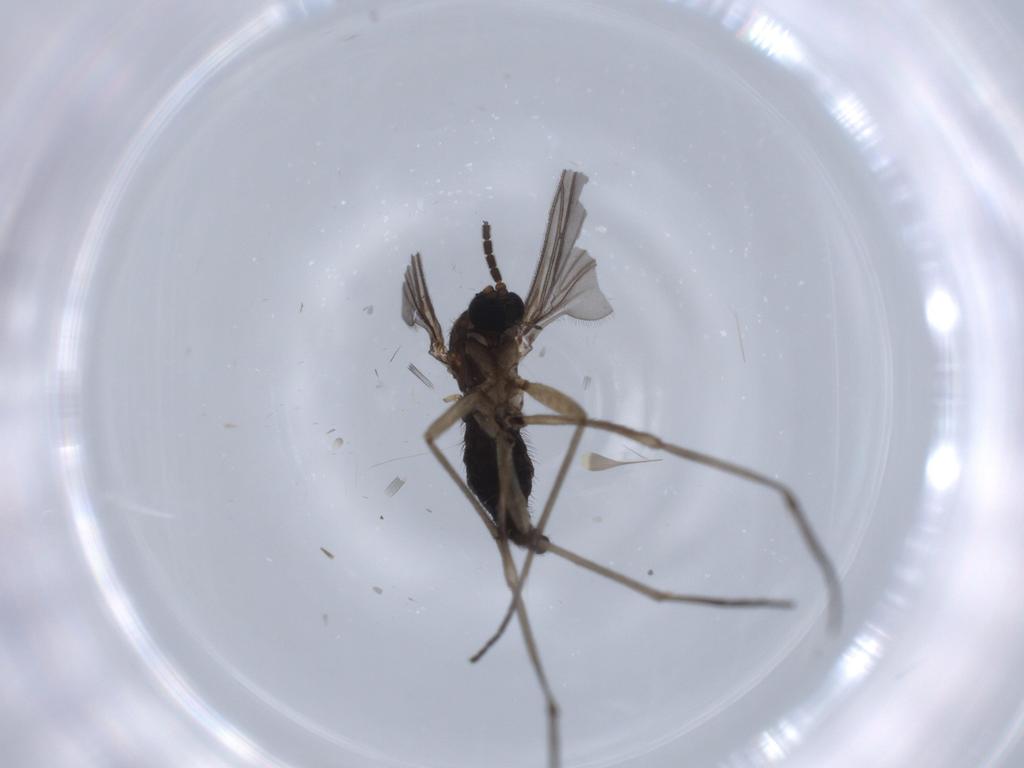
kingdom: Animalia
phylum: Arthropoda
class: Insecta
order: Diptera
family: Sciaridae
